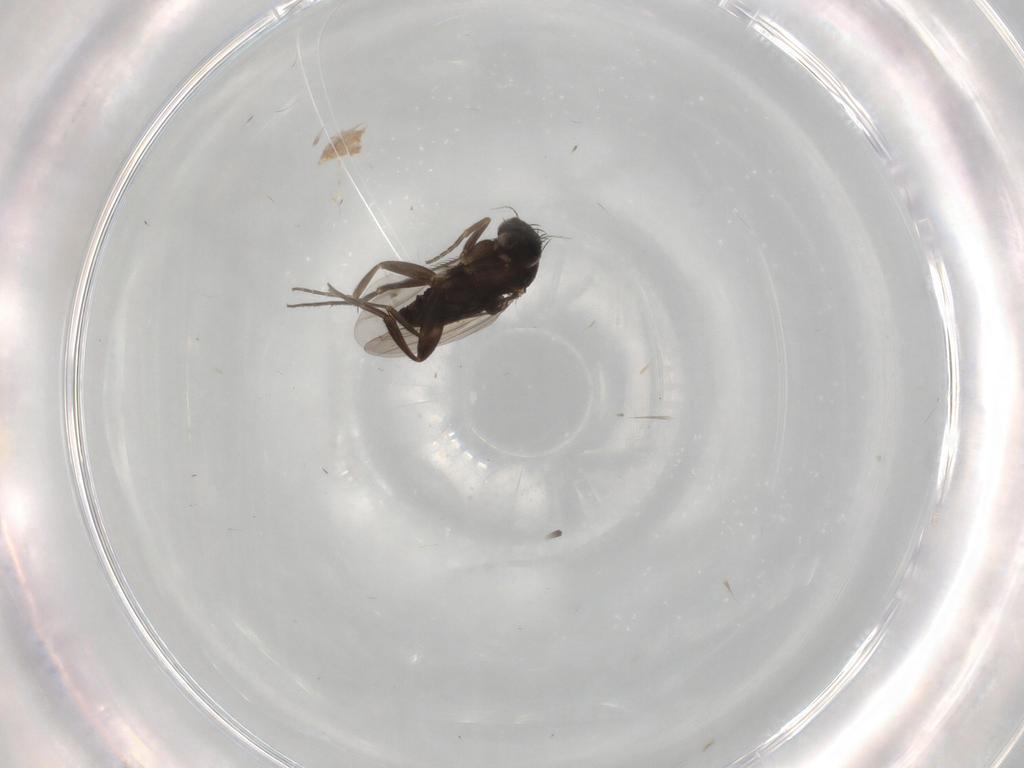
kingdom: Animalia
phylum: Arthropoda
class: Insecta
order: Diptera
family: Phoridae
